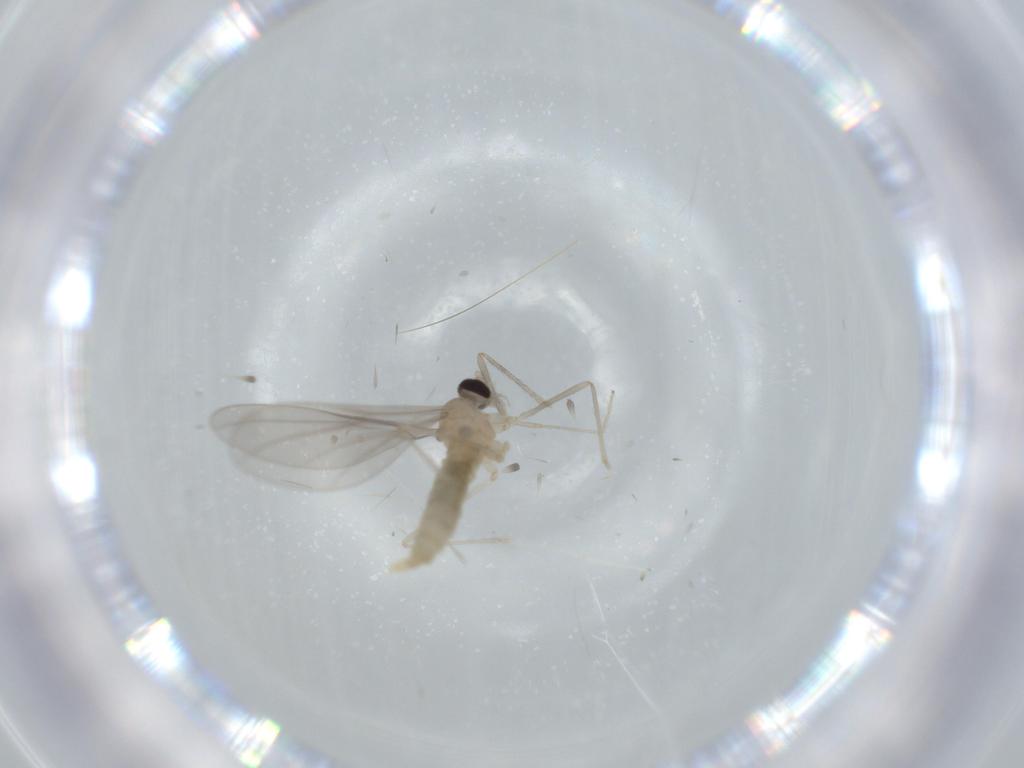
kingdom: Animalia
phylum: Arthropoda
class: Insecta
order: Diptera
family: Cecidomyiidae
